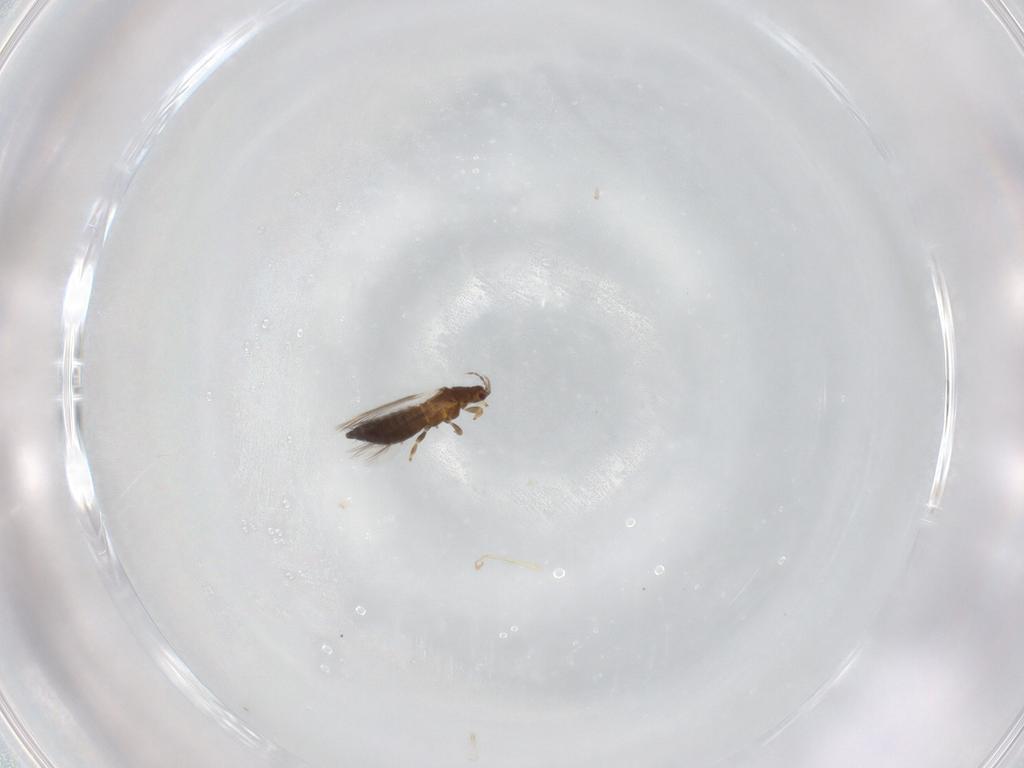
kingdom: Animalia
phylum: Arthropoda
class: Insecta
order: Thysanoptera
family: Thripidae
